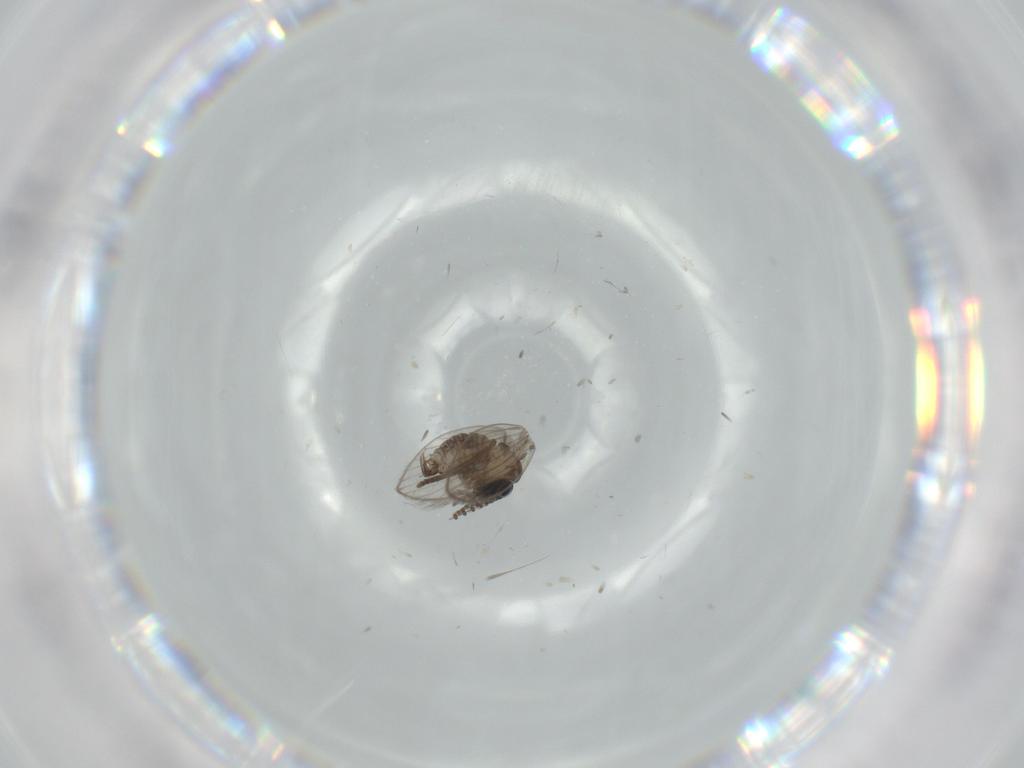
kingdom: Animalia
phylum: Arthropoda
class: Insecta
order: Diptera
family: Psychodidae
